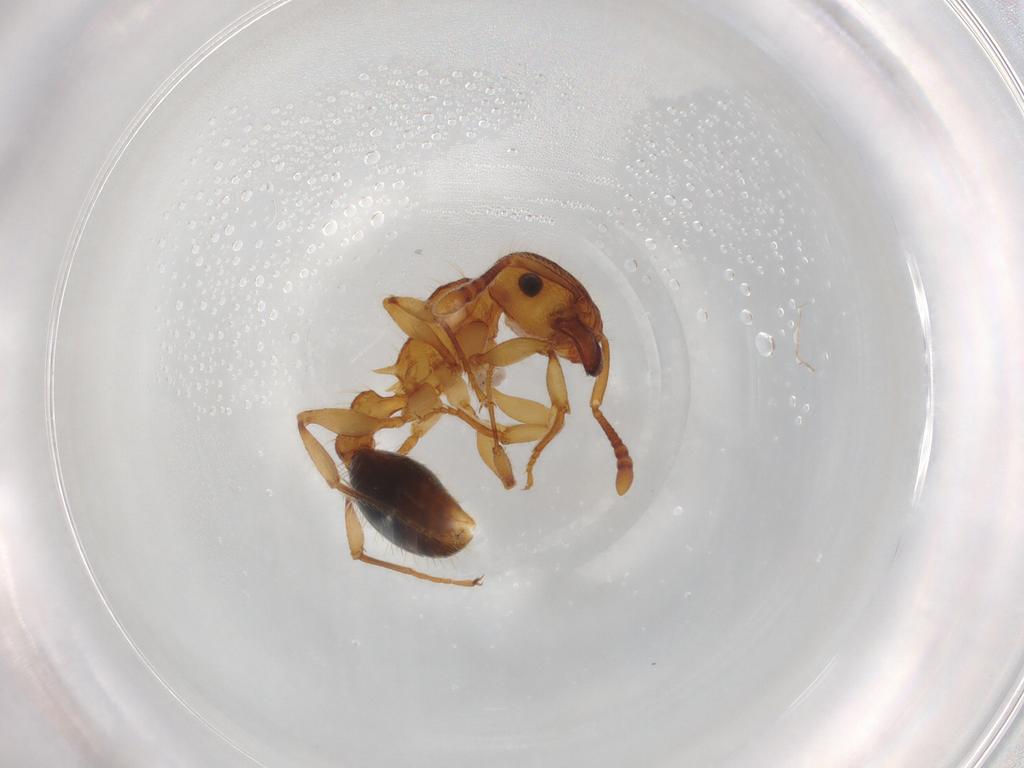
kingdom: Animalia
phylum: Arthropoda
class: Insecta
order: Hymenoptera
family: Formicidae
